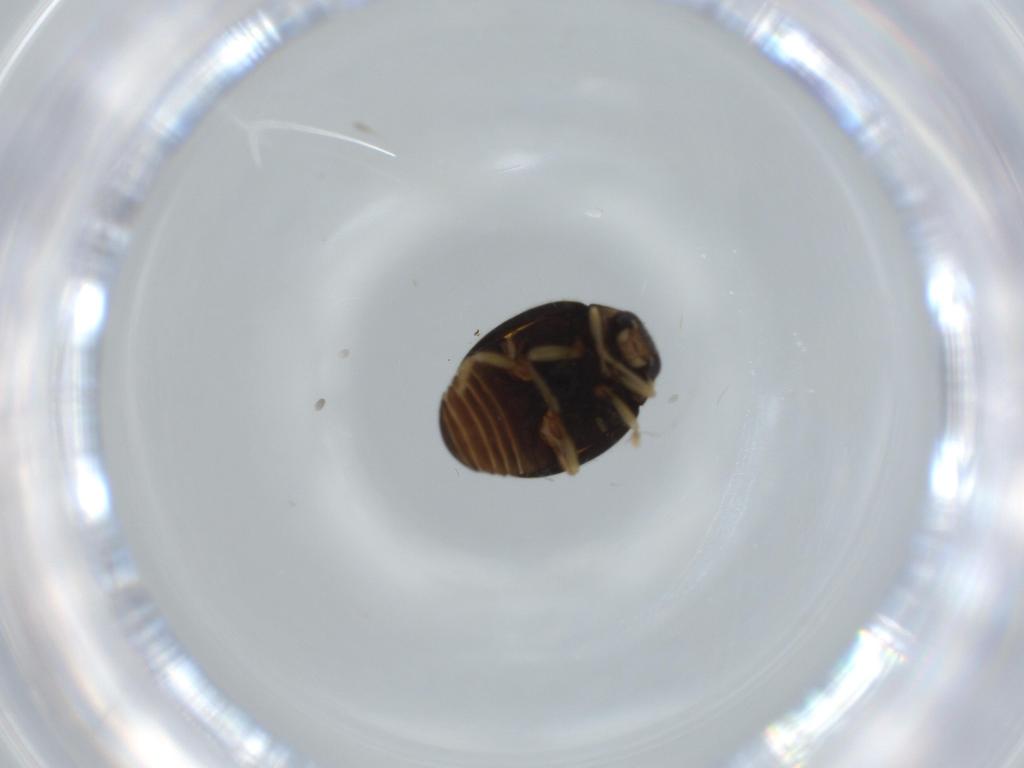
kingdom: Animalia
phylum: Arthropoda
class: Insecta
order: Coleoptera
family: Coccinellidae
